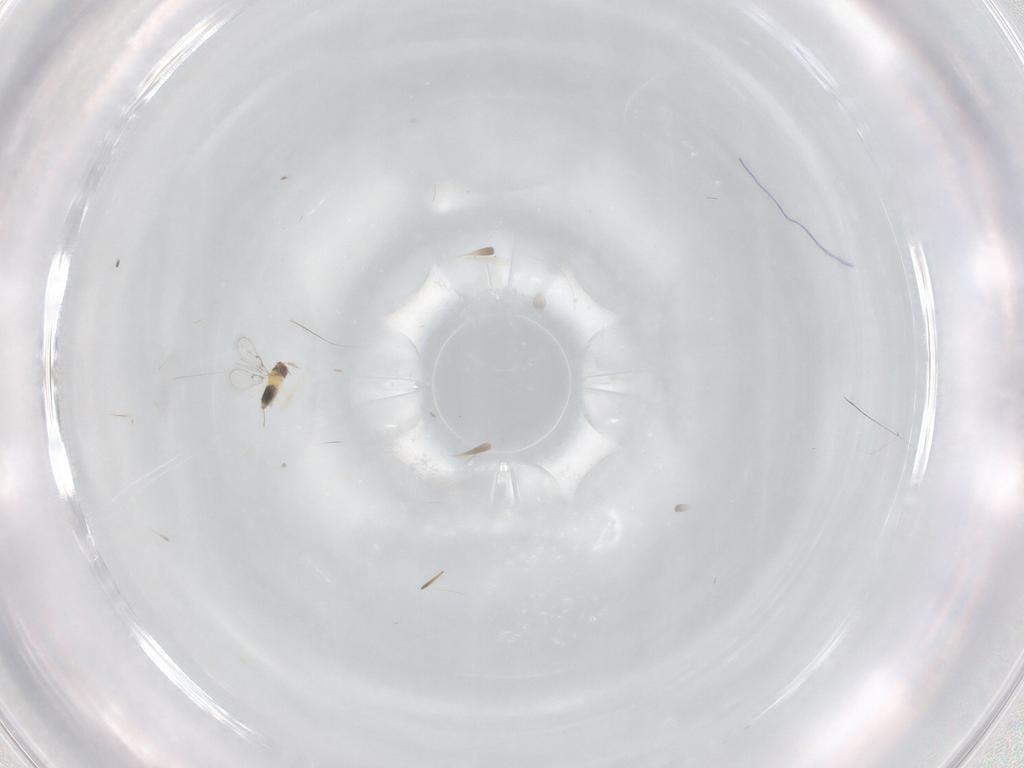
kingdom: Animalia
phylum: Arthropoda
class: Insecta
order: Hymenoptera
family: Trichogrammatidae
